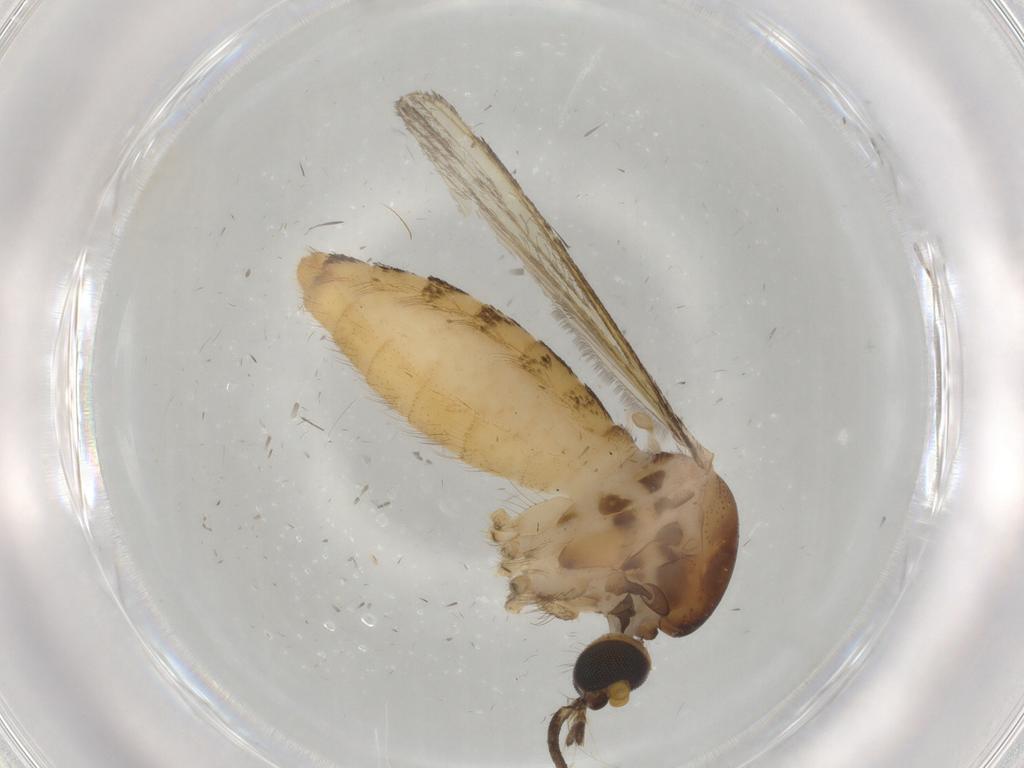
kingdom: Animalia
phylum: Arthropoda
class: Insecta
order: Diptera
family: Culicidae
